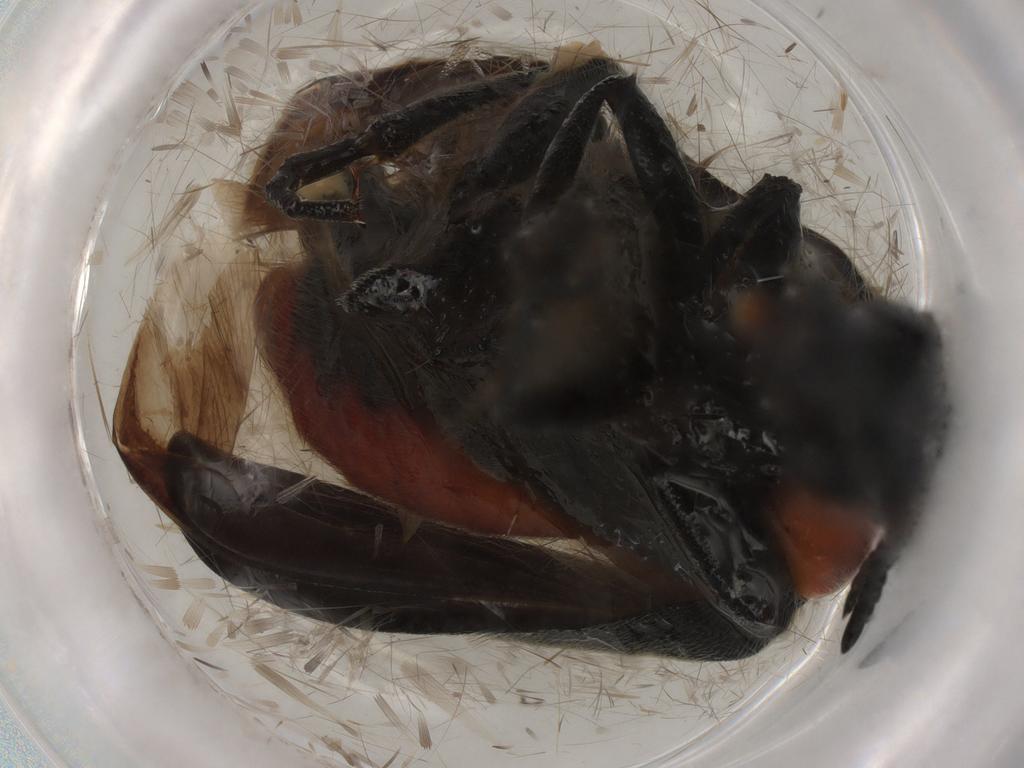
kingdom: Animalia
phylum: Arthropoda
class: Insecta
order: Coleoptera
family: Meloidae
